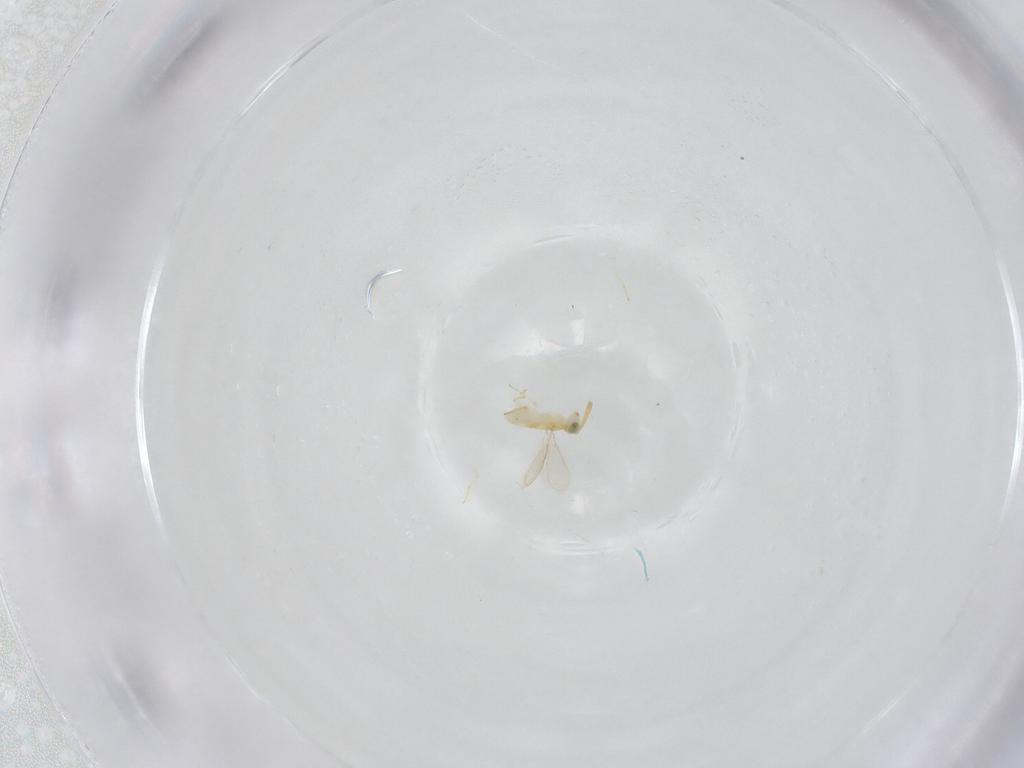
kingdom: Animalia
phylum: Arthropoda
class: Insecta
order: Hymenoptera
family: Aphelinidae
